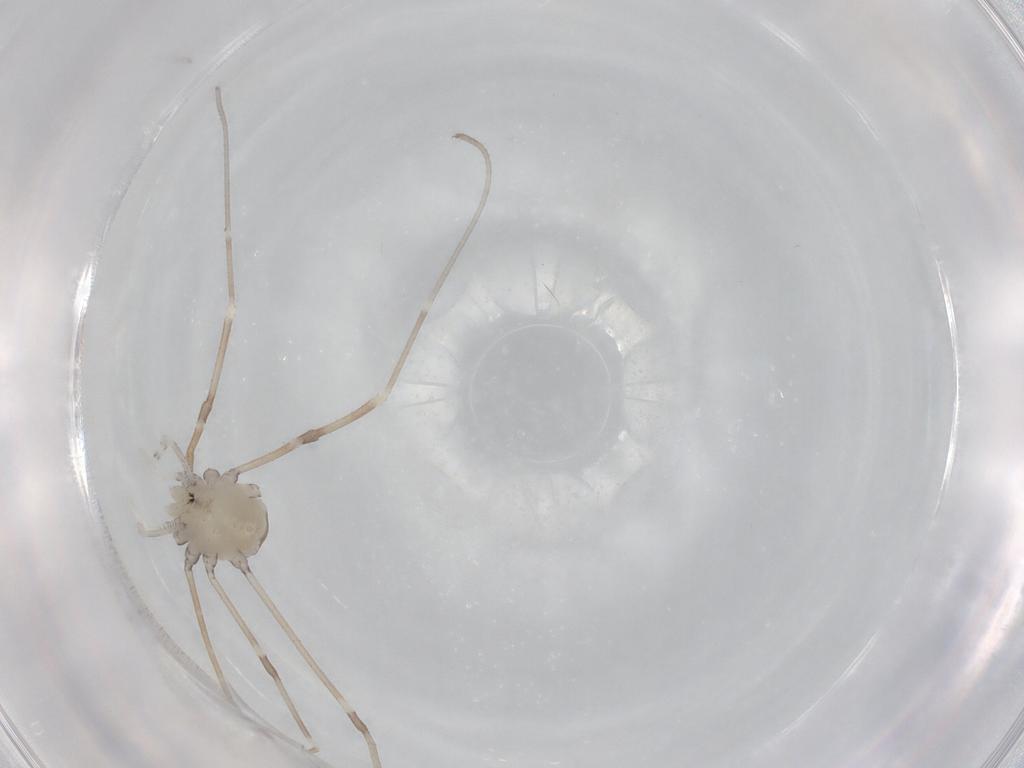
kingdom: Animalia
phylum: Arthropoda
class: Arachnida
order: Opiliones
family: Sclerosomatidae
